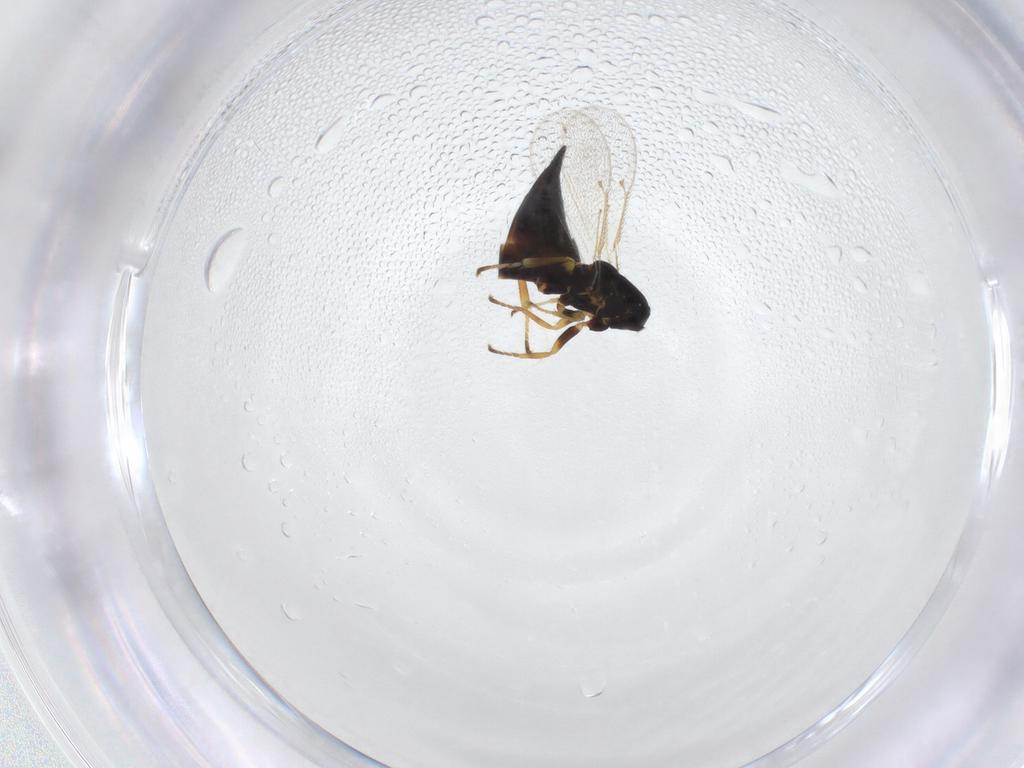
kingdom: Animalia
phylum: Arthropoda
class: Insecta
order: Hymenoptera
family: Eulophidae
